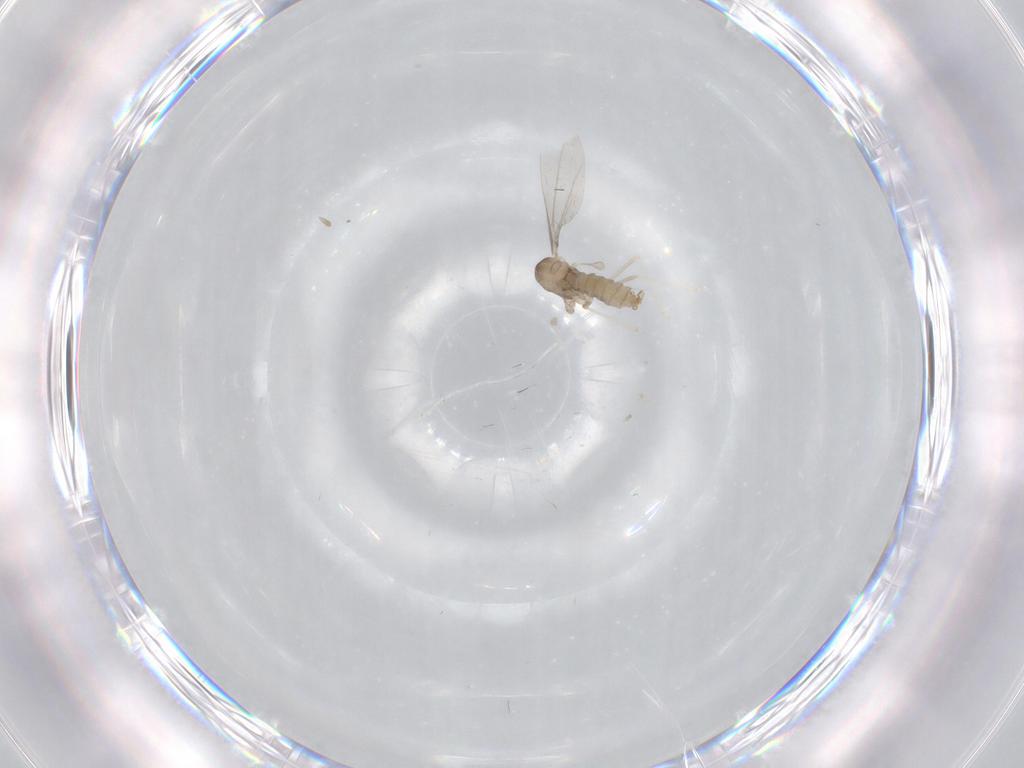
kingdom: Animalia
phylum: Arthropoda
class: Insecta
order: Diptera
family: Cecidomyiidae
